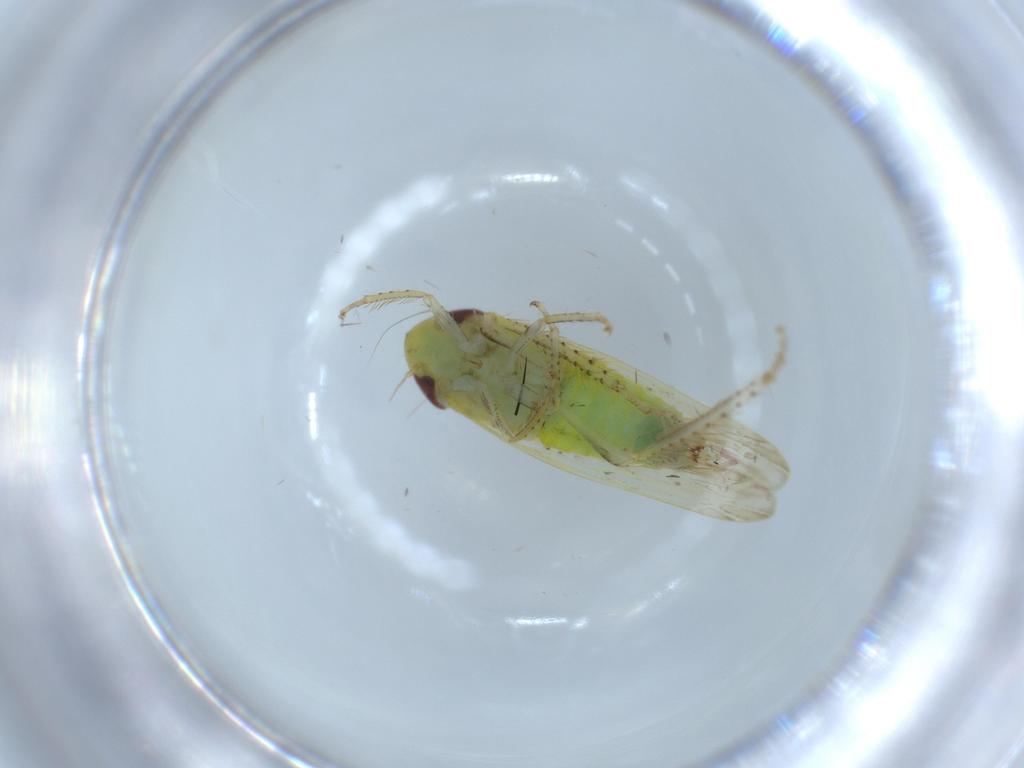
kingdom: Animalia
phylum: Arthropoda
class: Insecta
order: Hemiptera
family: Cicadellidae
